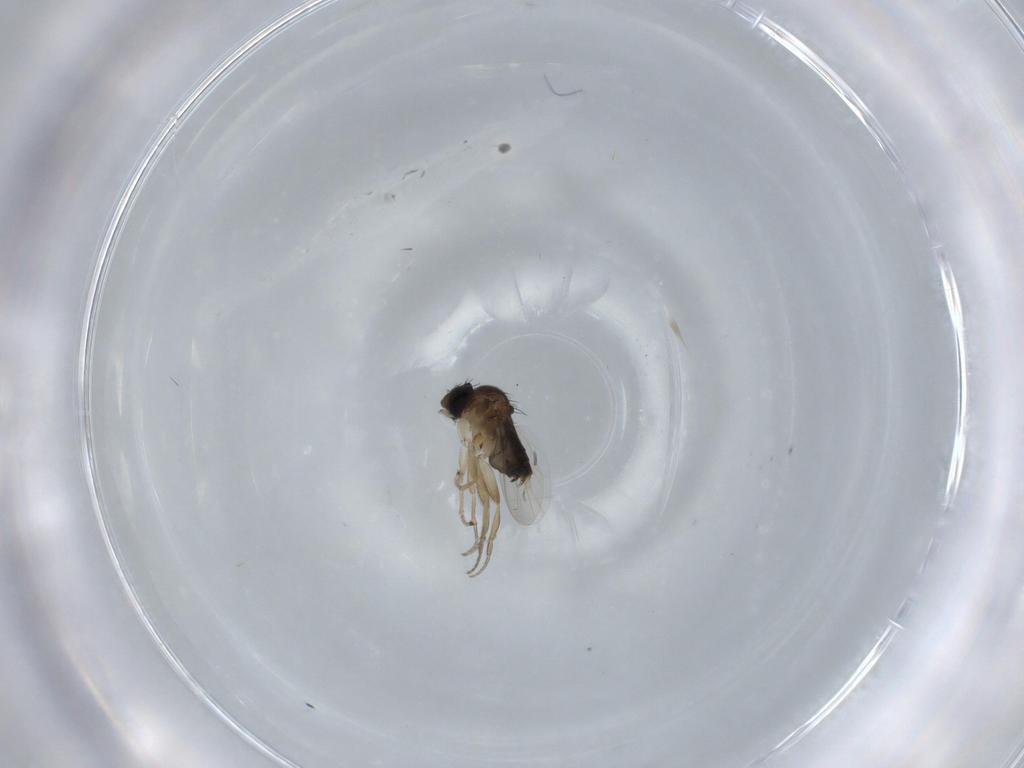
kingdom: Animalia
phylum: Arthropoda
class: Insecta
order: Diptera
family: Phoridae
